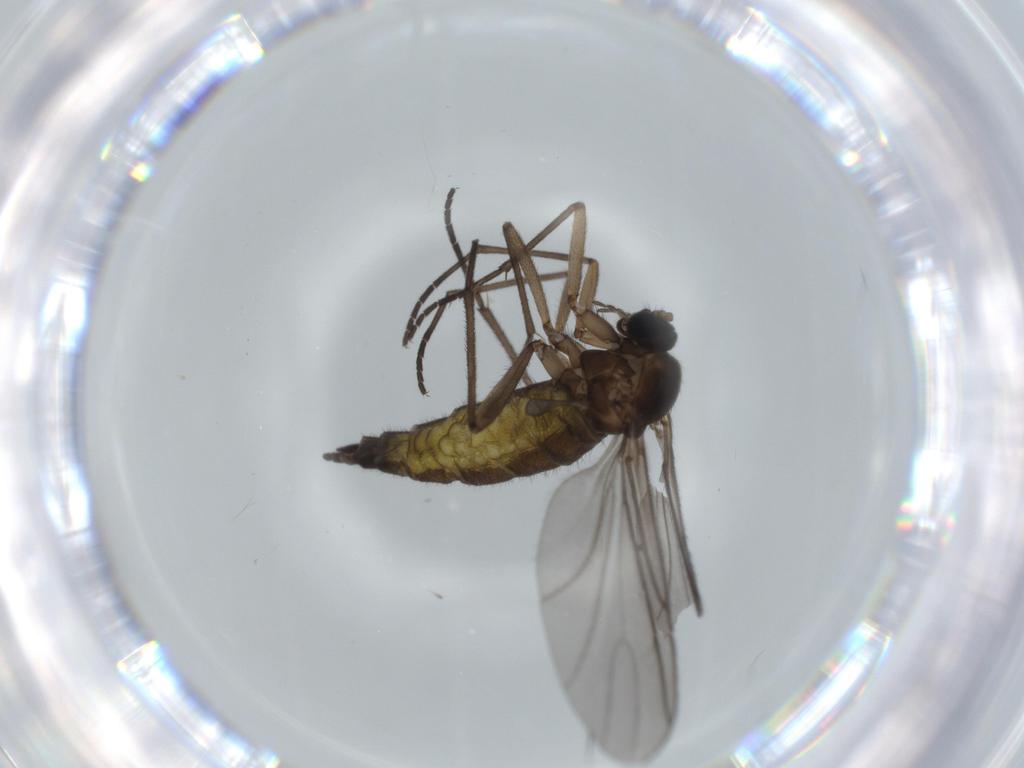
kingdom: Animalia
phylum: Arthropoda
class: Insecta
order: Diptera
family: Sciaridae
